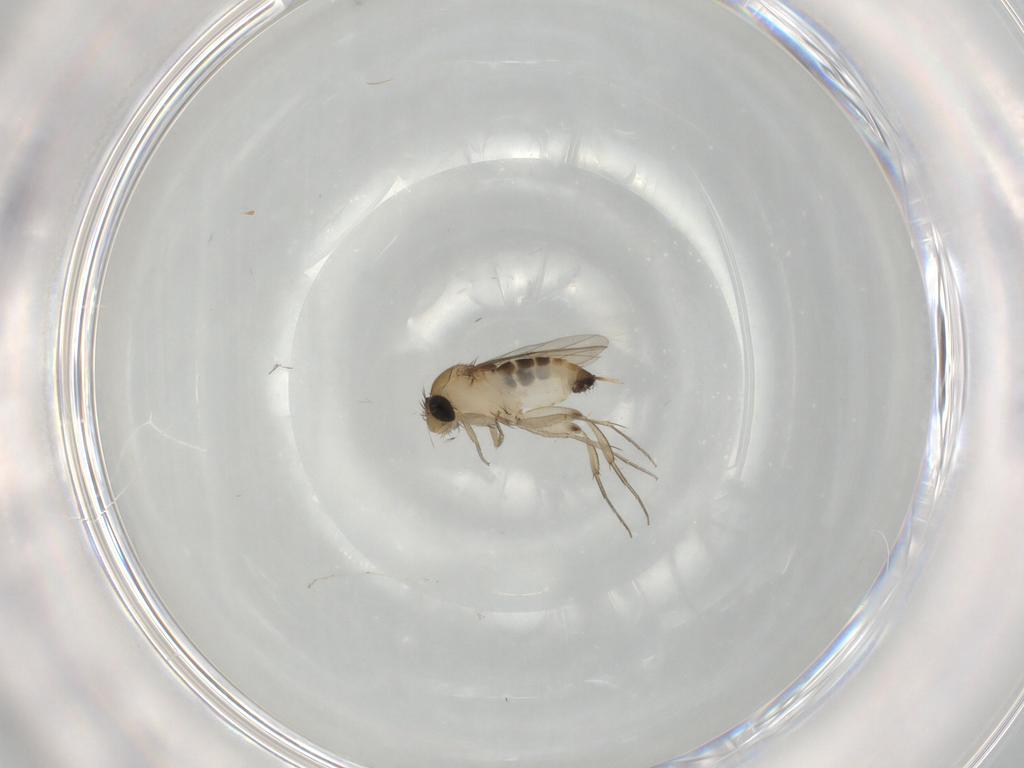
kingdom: Animalia
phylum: Arthropoda
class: Insecta
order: Diptera
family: Phoridae
